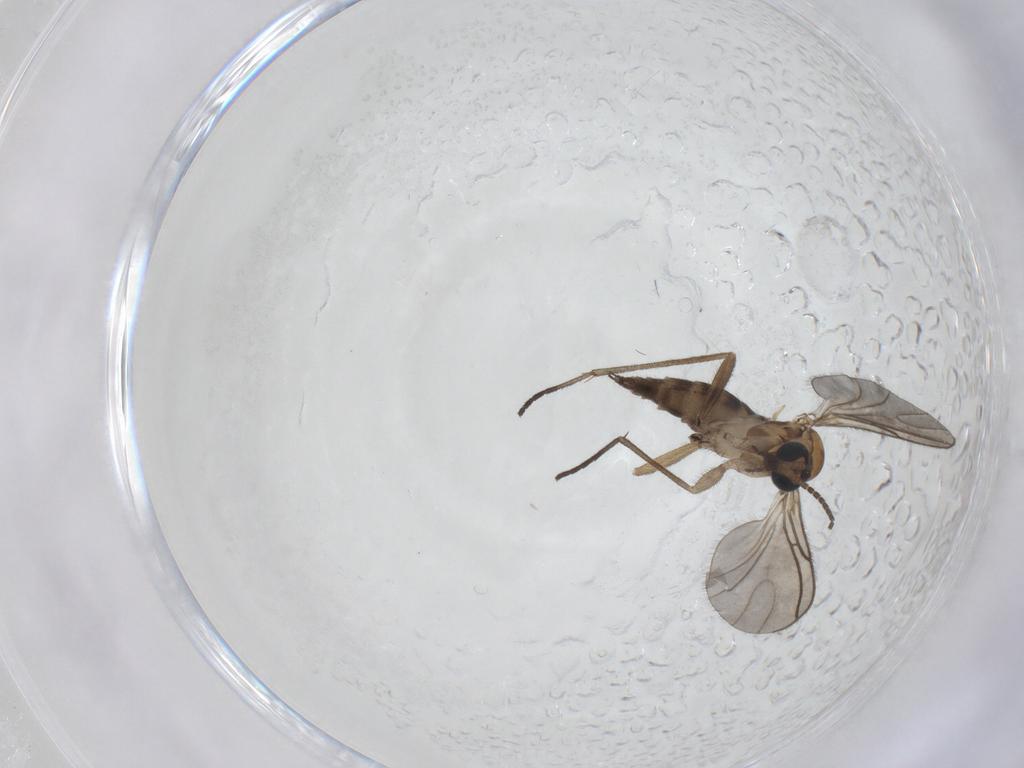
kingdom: Animalia
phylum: Arthropoda
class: Insecta
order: Diptera
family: Sciaridae
